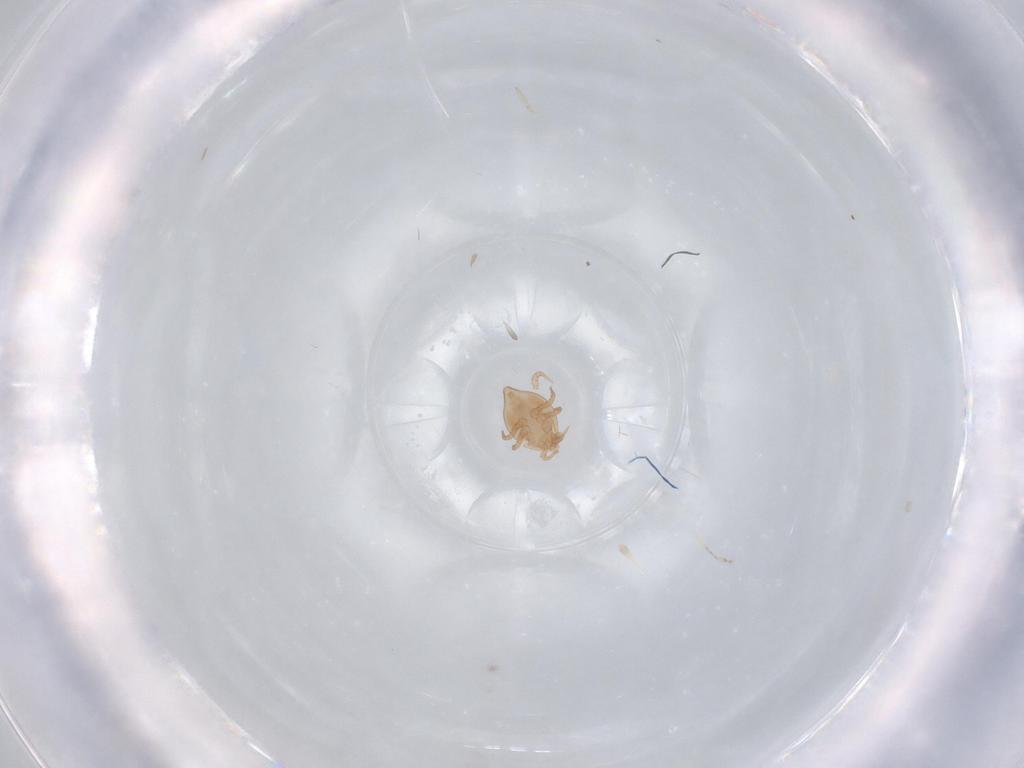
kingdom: Animalia
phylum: Arthropoda
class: Arachnida
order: Mesostigmata
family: Polyaspididae
